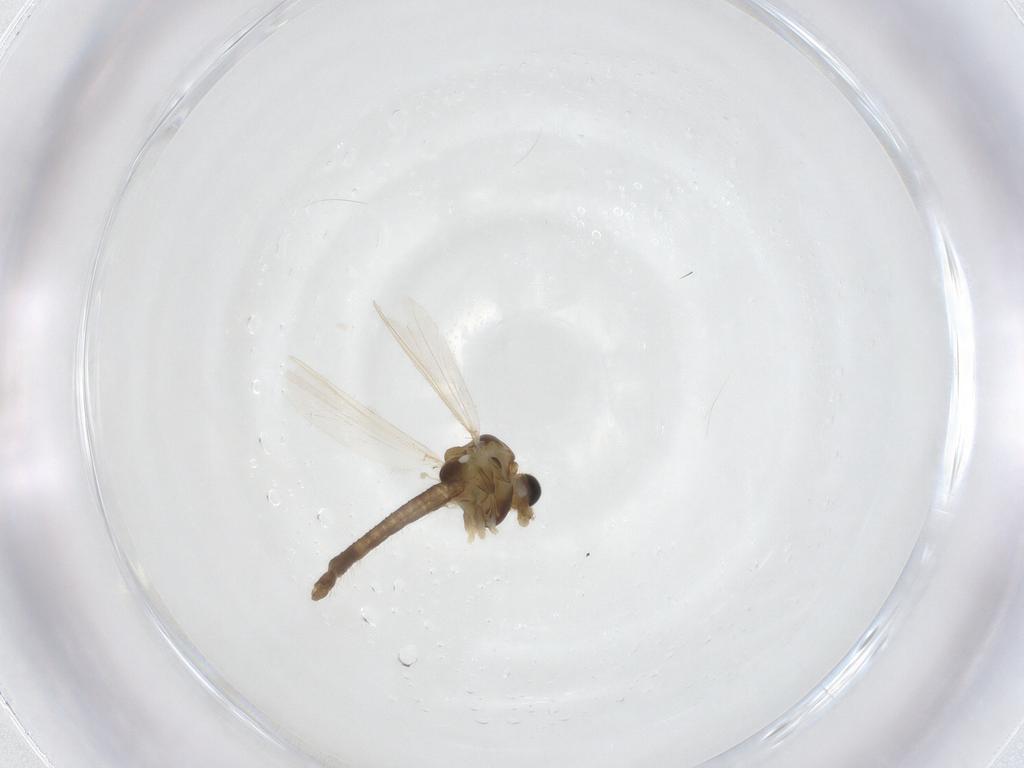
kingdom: Animalia
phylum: Arthropoda
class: Insecta
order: Diptera
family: Chironomidae
